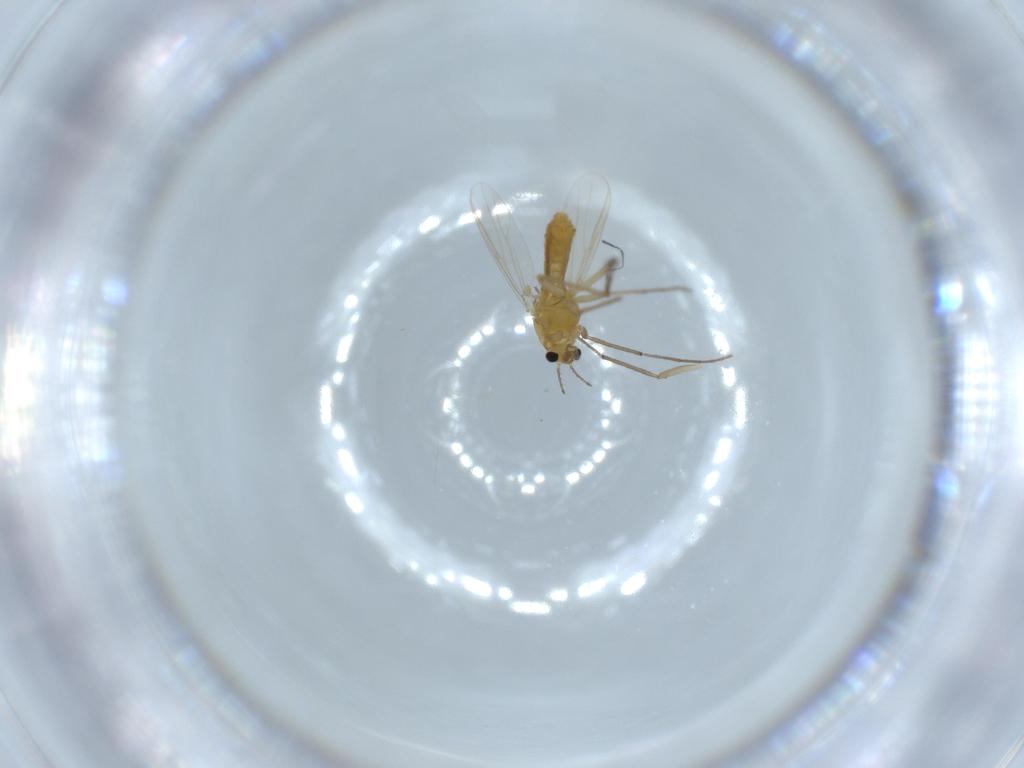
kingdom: Animalia
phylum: Arthropoda
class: Insecta
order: Diptera
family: Chironomidae
